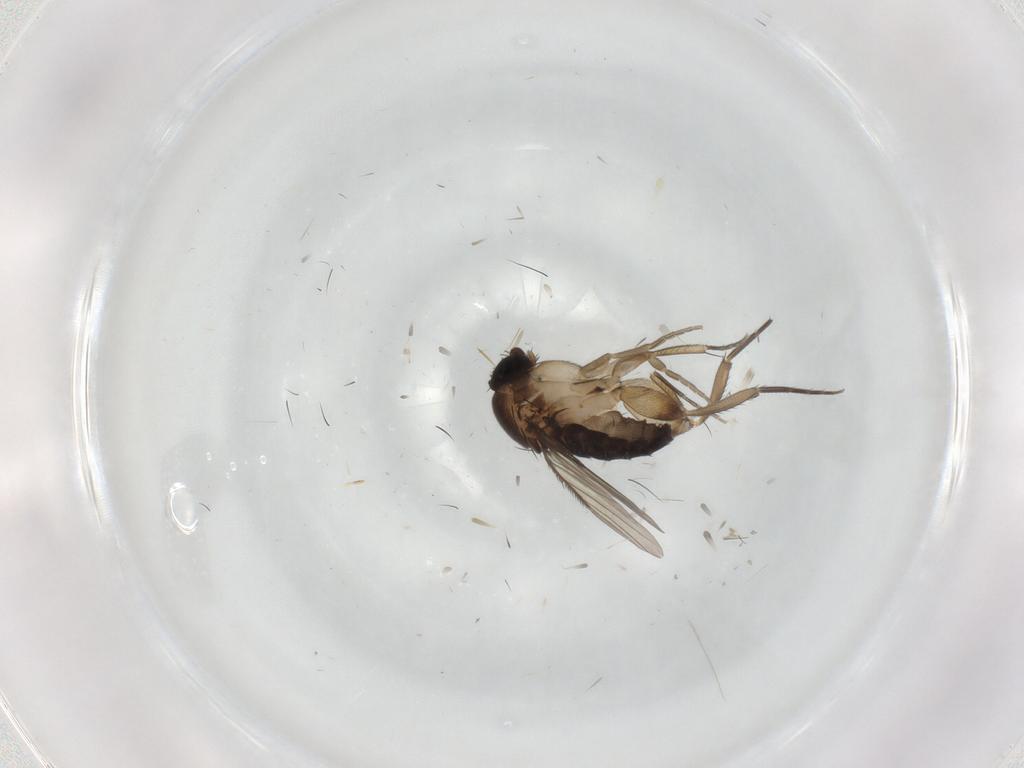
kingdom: Animalia
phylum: Arthropoda
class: Insecta
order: Diptera
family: Phoridae
